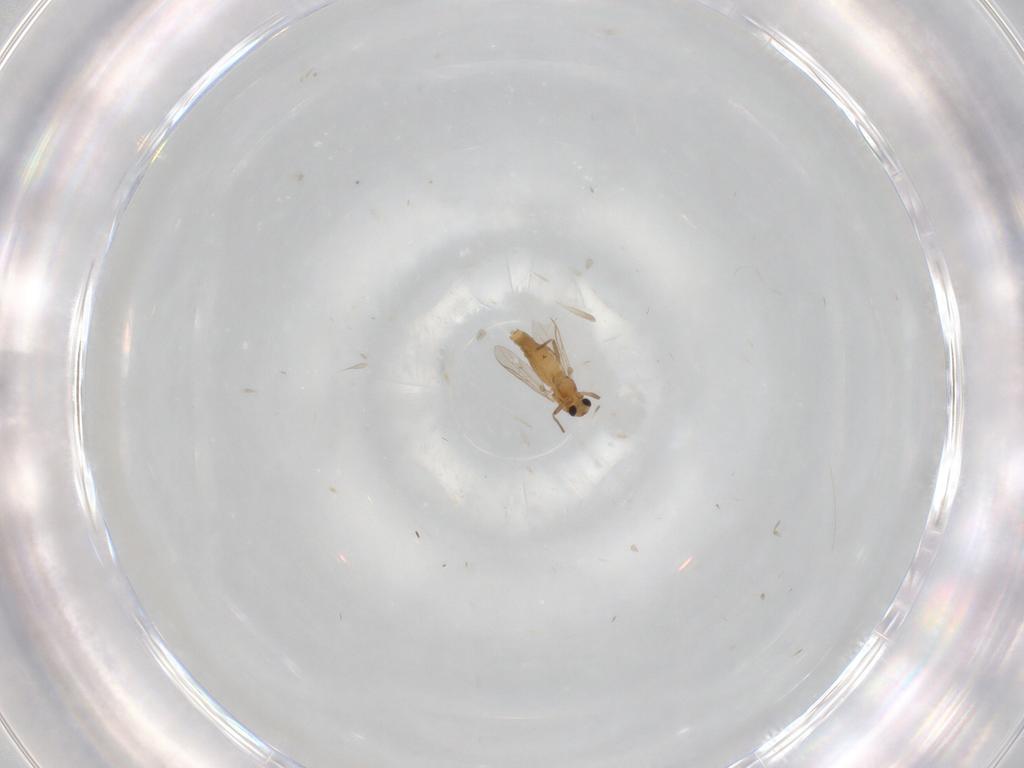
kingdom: Animalia
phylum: Arthropoda
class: Insecta
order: Diptera
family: Chironomidae
